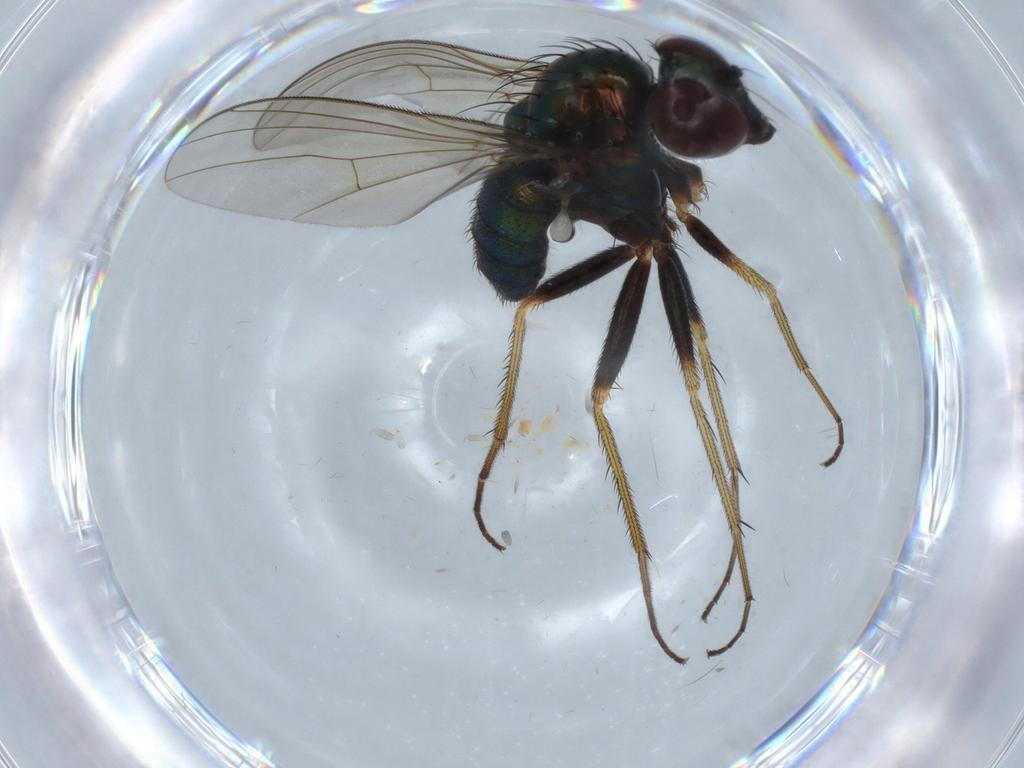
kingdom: Animalia
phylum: Arthropoda
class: Insecta
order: Diptera
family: Dolichopodidae
